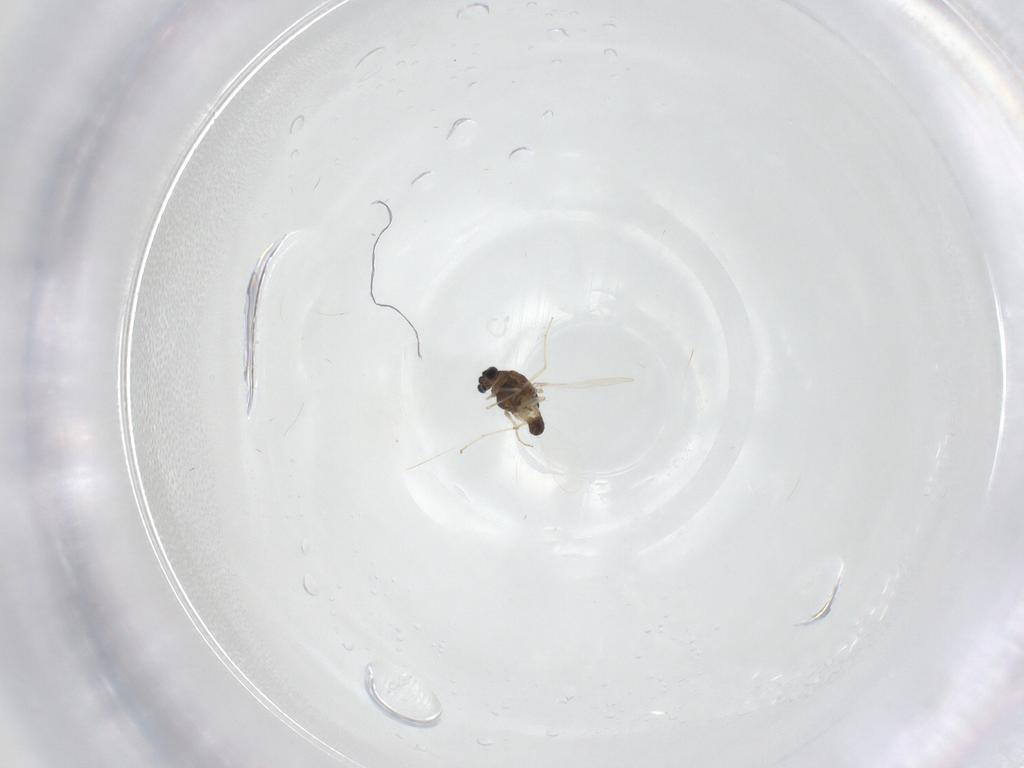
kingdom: Animalia
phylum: Arthropoda
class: Insecta
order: Diptera
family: Chironomidae
